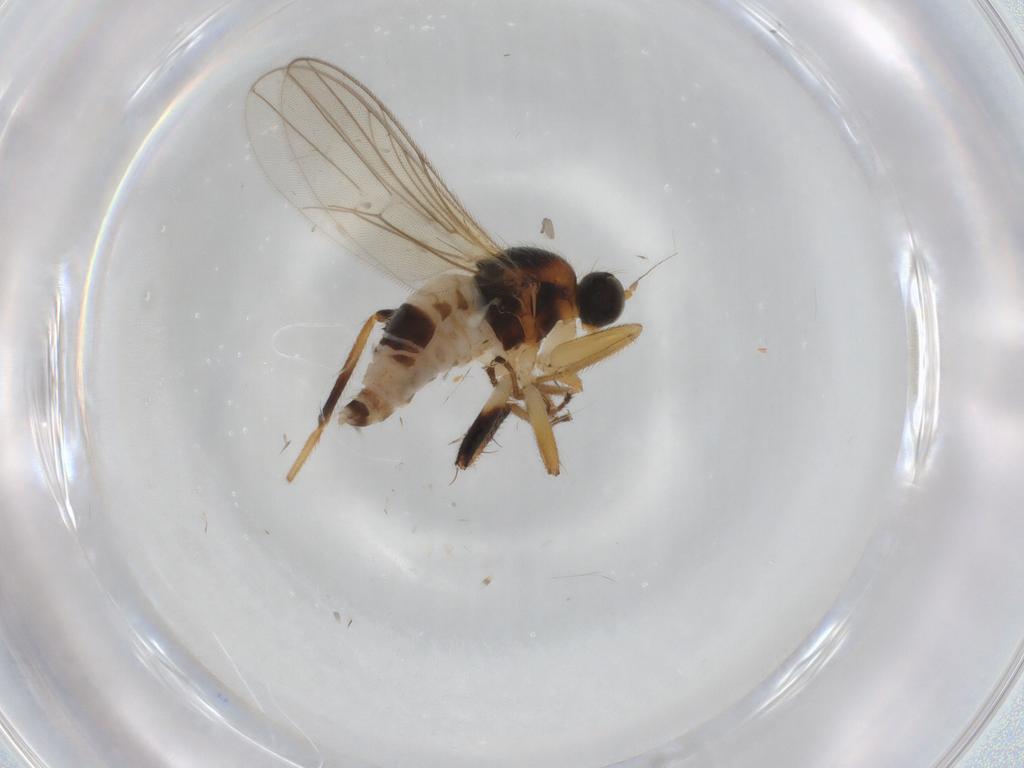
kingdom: Animalia
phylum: Arthropoda
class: Insecta
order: Diptera
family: Hybotidae
